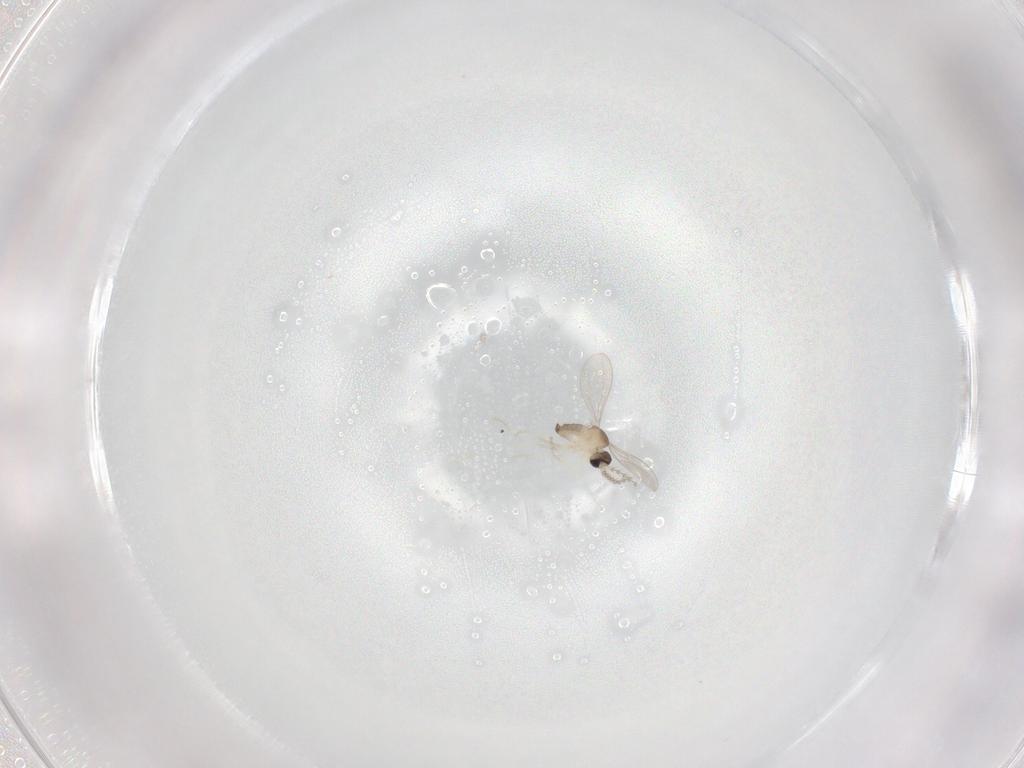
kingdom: Animalia
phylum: Arthropoda
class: Insecta
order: Diptera
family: Cecidomyiidae
